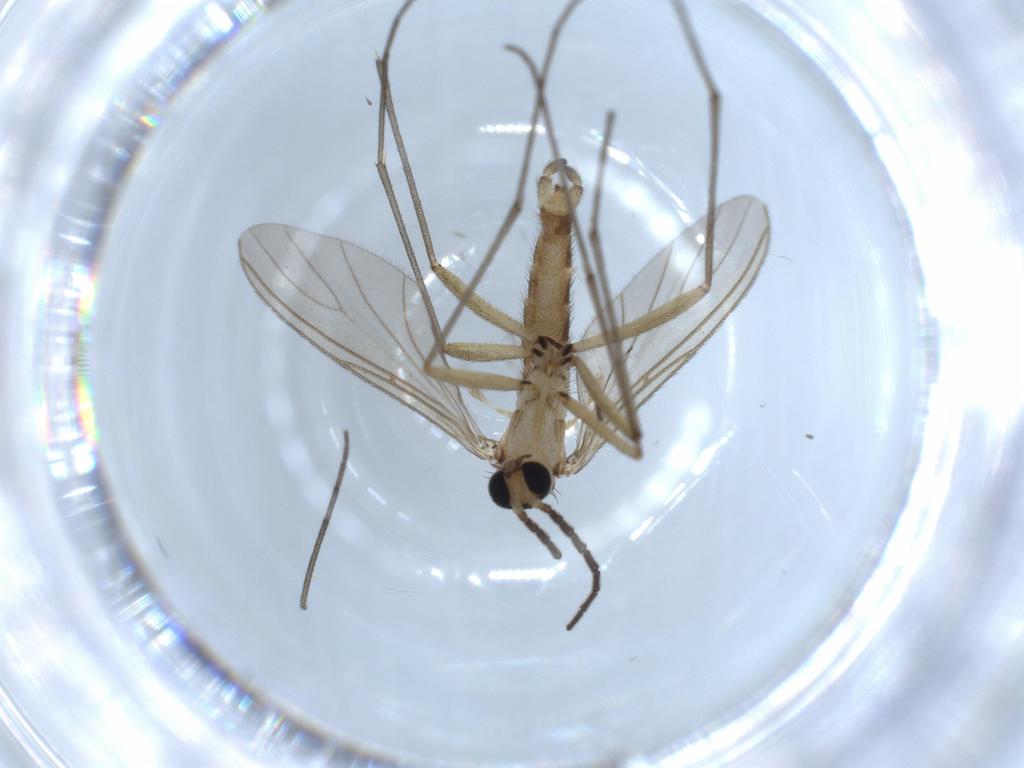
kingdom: Animalia
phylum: Arthropoda
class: Insecta
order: Diptera
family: Sciaridae
